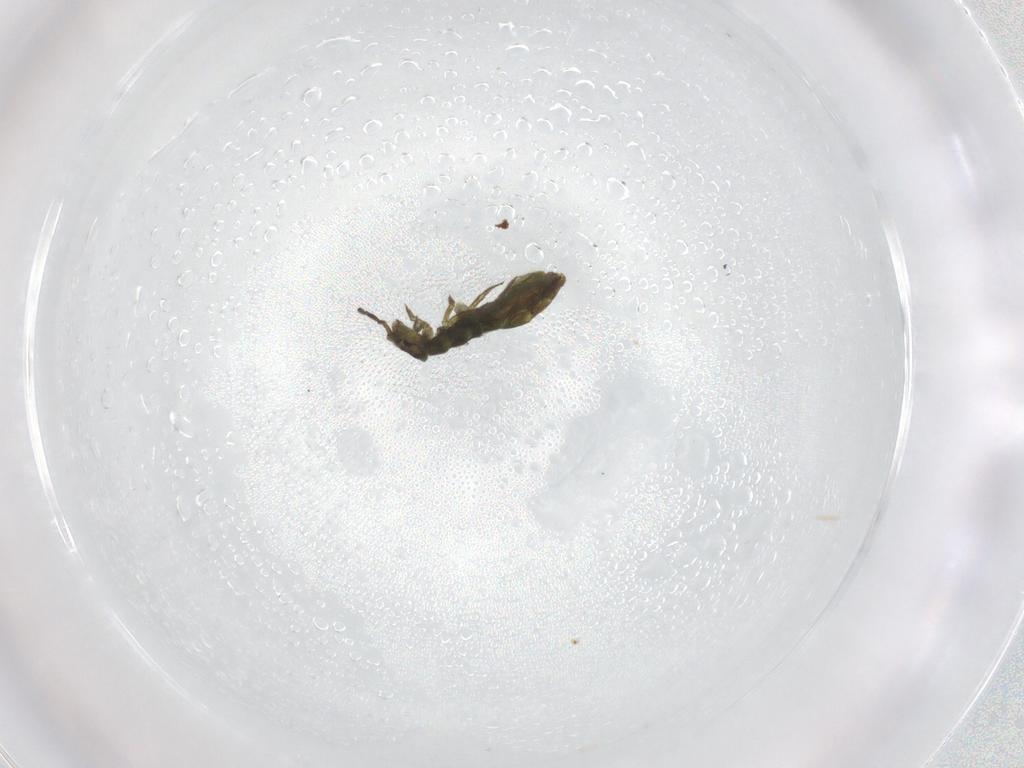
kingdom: Animalia
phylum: Arthropoda
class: Collembola
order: Entomobryomorpha
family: Isotomidae
